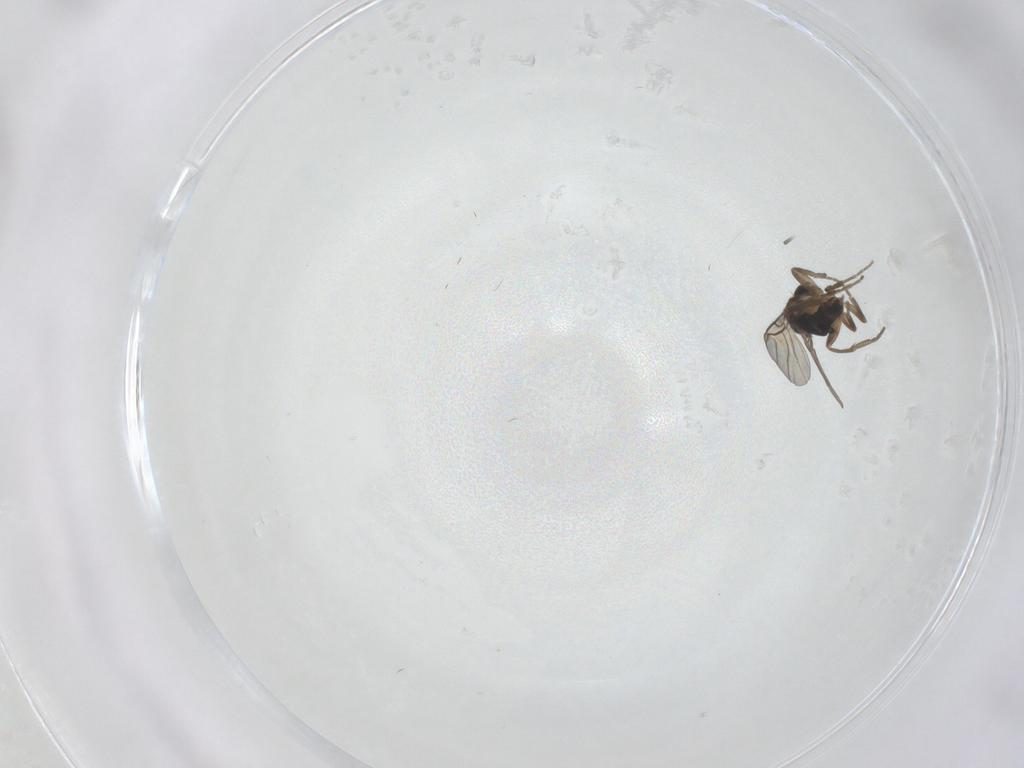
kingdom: Animalia
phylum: Arthropoda
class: Insecta
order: Diptera
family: Phoridae
